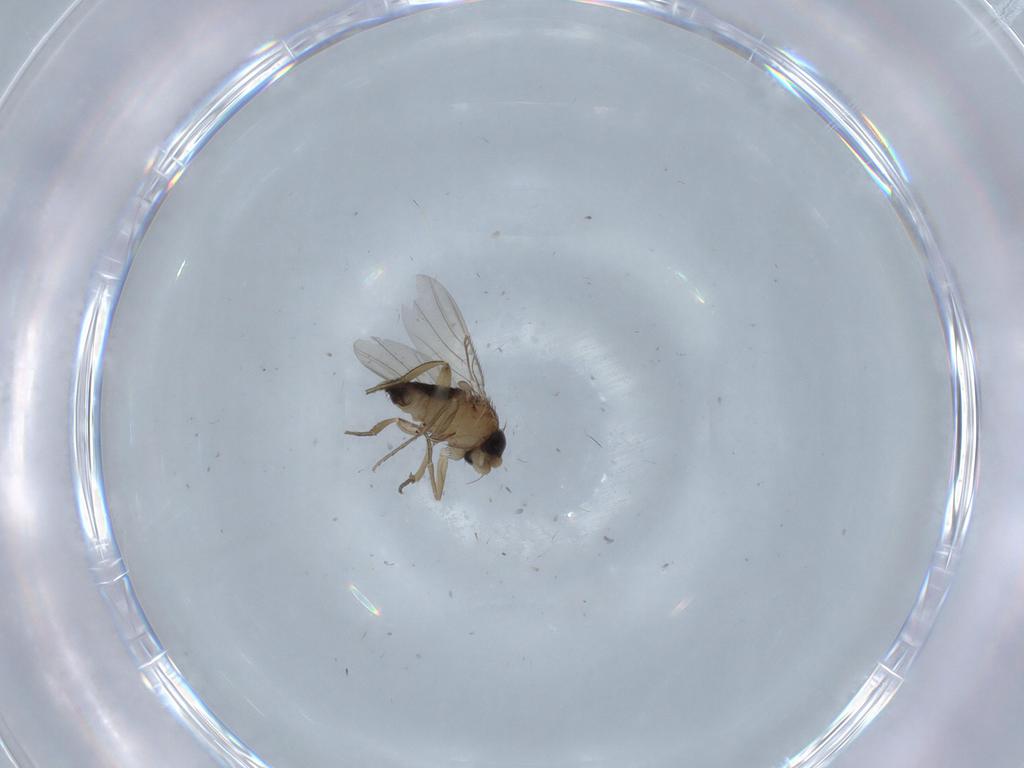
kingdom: Animalia
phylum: Arthropoda
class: Insecta
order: Diptera
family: Phoridae
